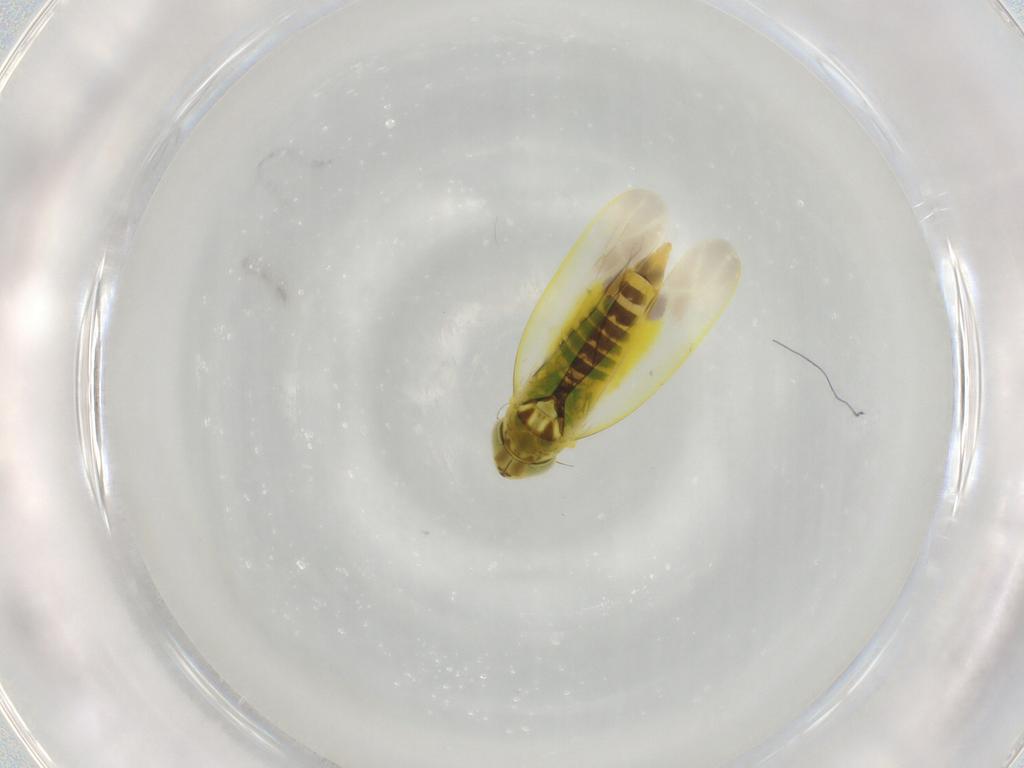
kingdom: Animalia
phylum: Arthropoda
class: Insecta
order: Hemiptera
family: Cicadellidae
